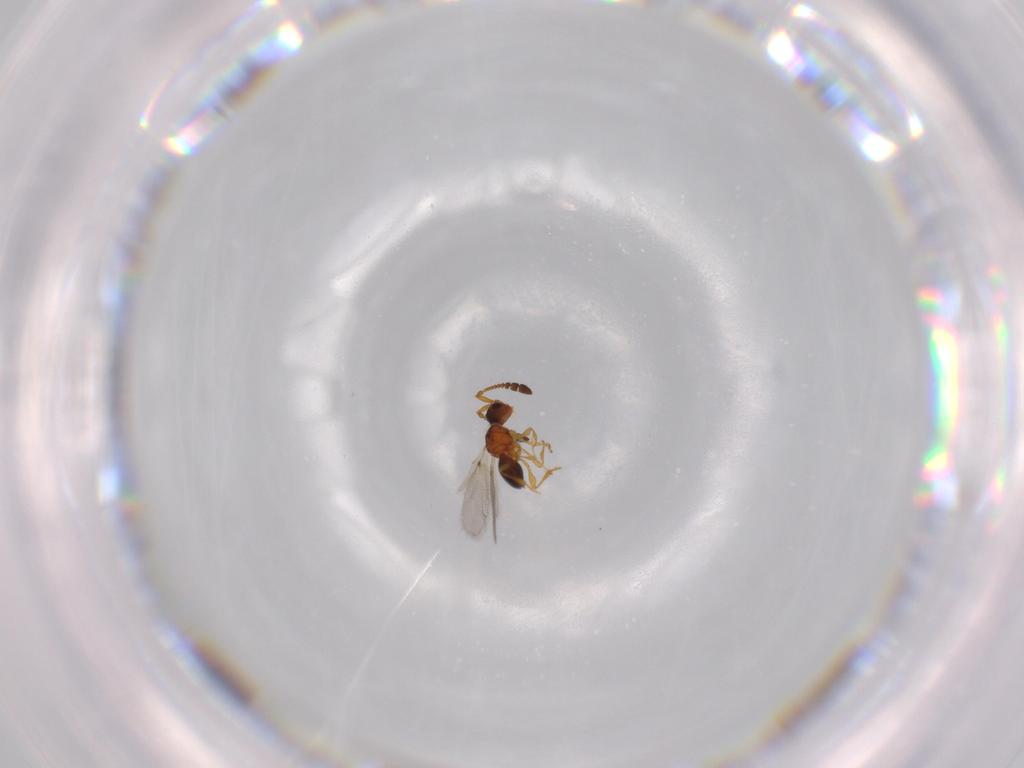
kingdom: Animalia
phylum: Arthropoda
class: Insecta
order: Hymenoptera
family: Diapriidae
